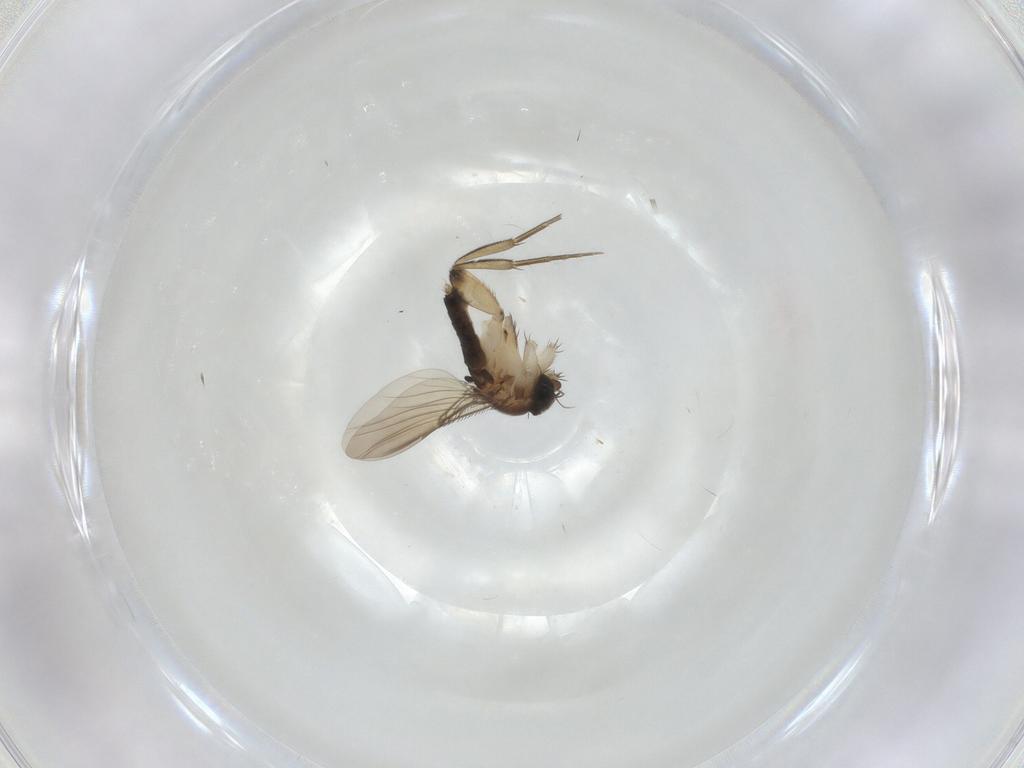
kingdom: Animalia
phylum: Arthropoda
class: Insecta
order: Diptera
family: Phoridae
